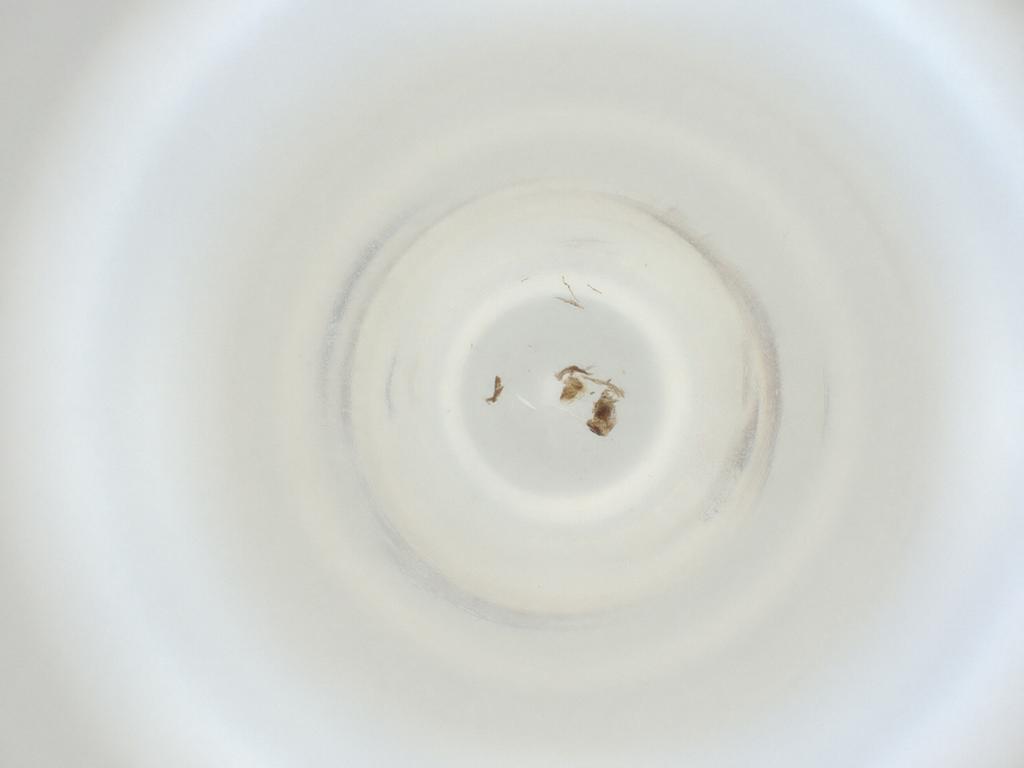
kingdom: Animalia
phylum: Arthropoda
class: Insecta
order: Diptera
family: Cecidomyiidae
